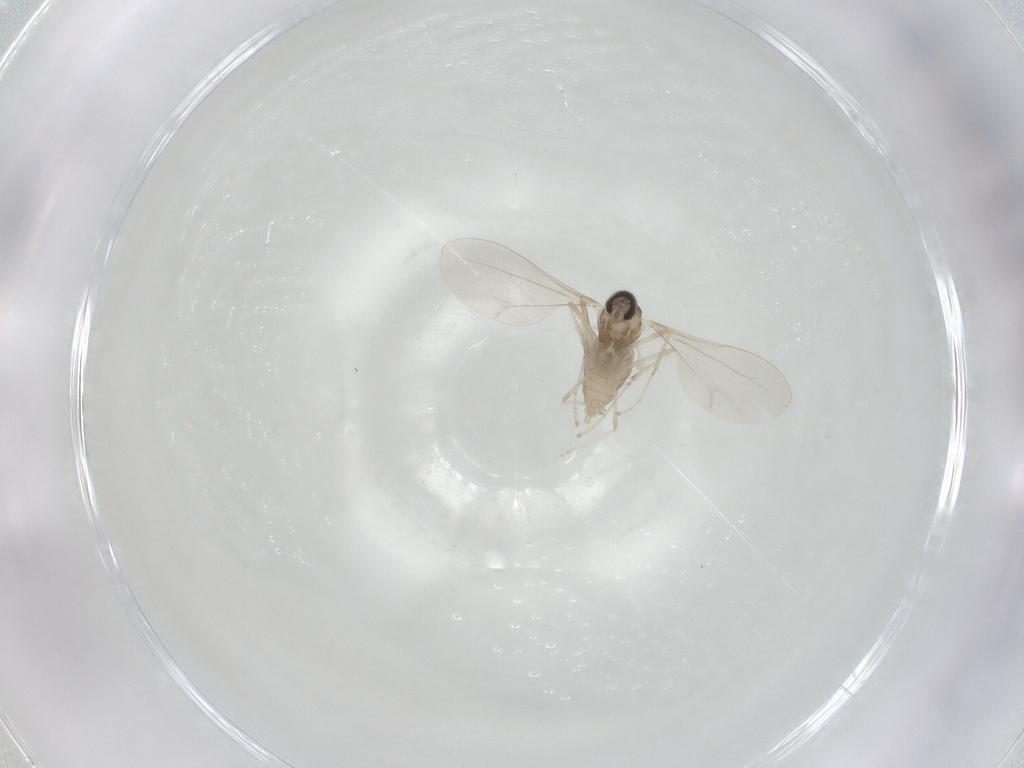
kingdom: Animalia
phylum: Arthropoda
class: Insecta
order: Diptera
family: Cecidomyiidae
